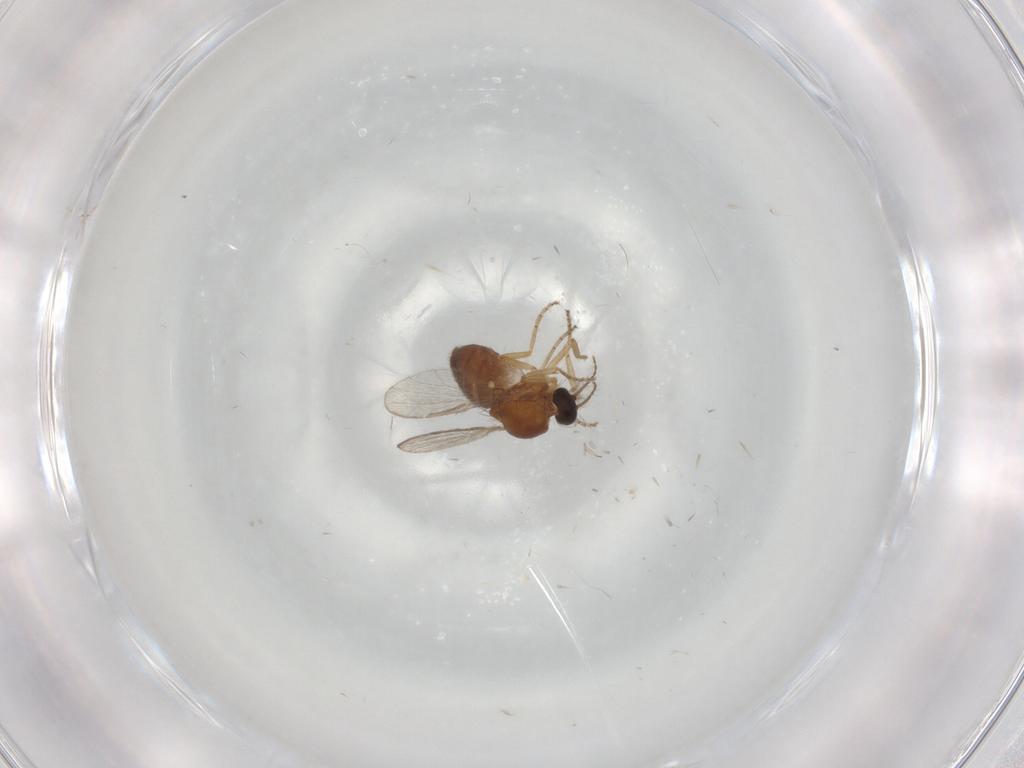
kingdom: Animalia
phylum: Arthropoda
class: Insecta
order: Diptera
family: Ceratopogonidae
